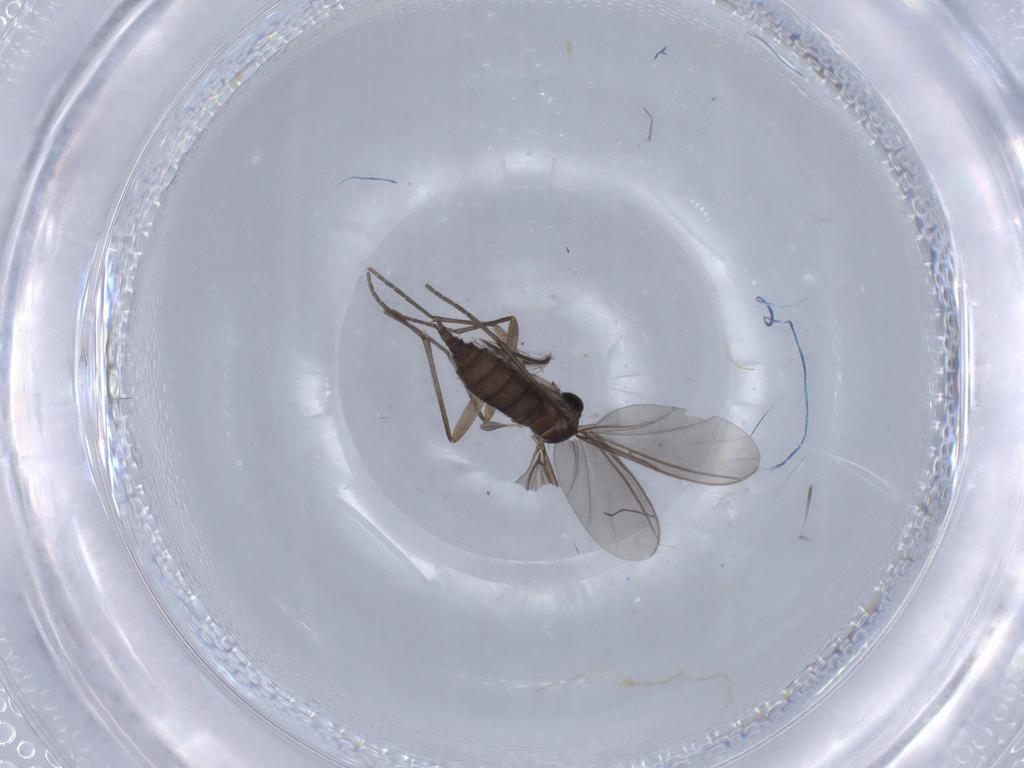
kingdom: Animalia
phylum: Arthropoda
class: Insecta
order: Diptera
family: Sciaridae
